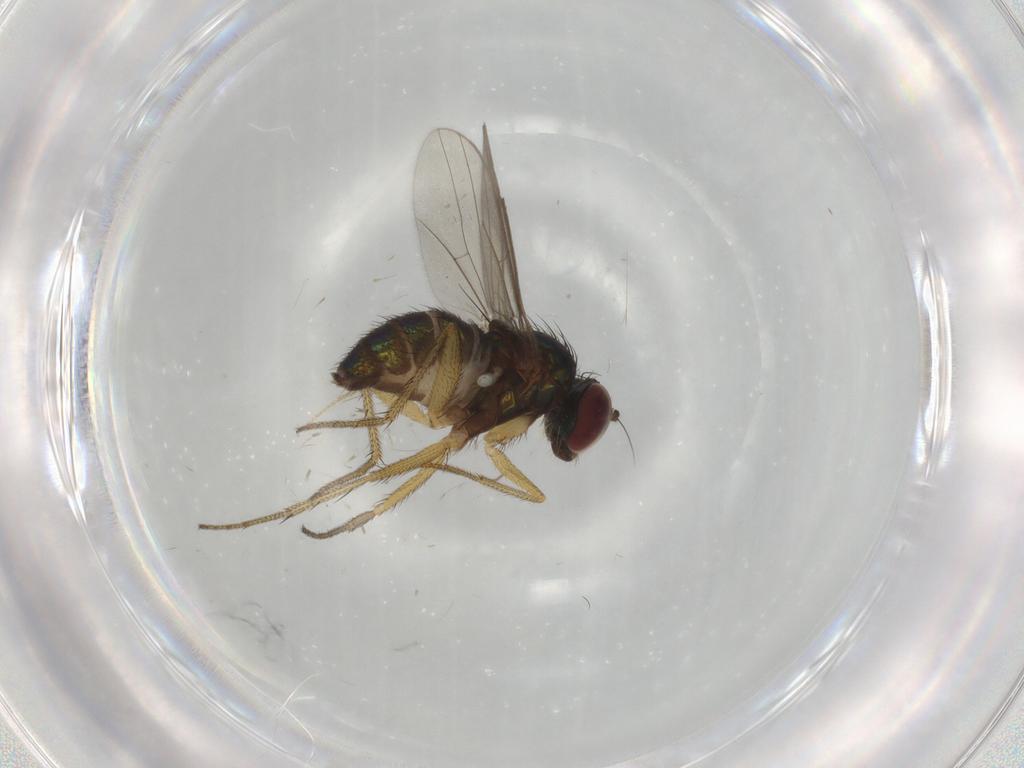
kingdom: Animalia
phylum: Arthropoda
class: Insecta
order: Diptera
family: Dolichopodidae
